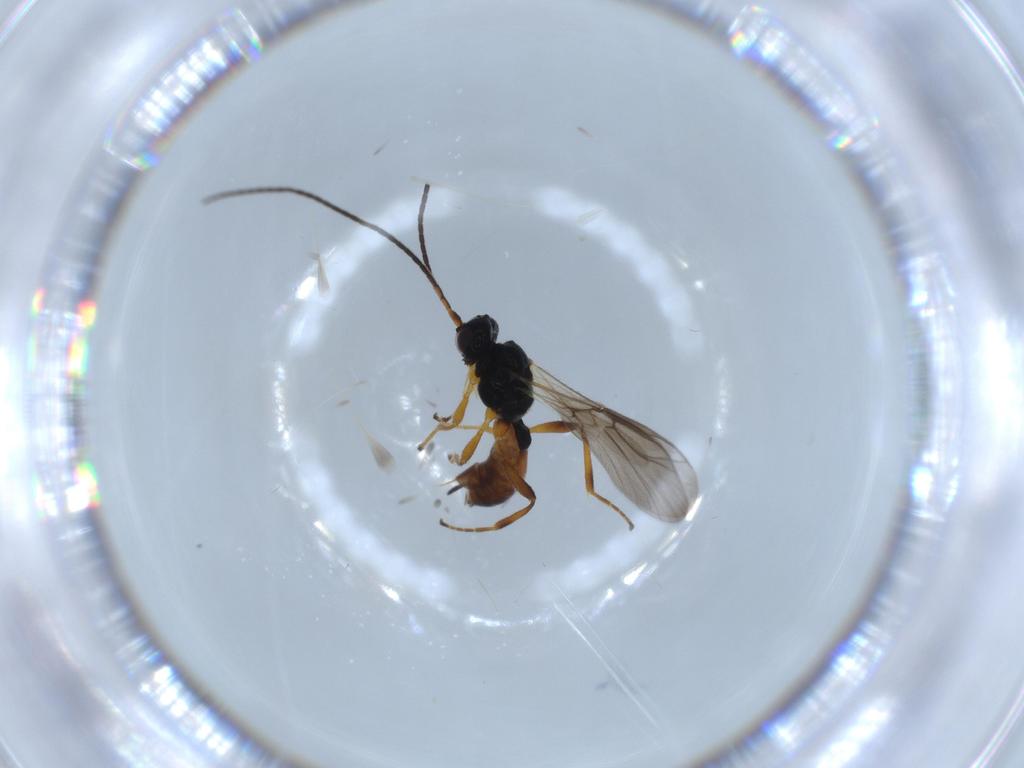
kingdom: Animalia
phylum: Arthropoda
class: Insecta
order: Hymenoptera
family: Braconidae
